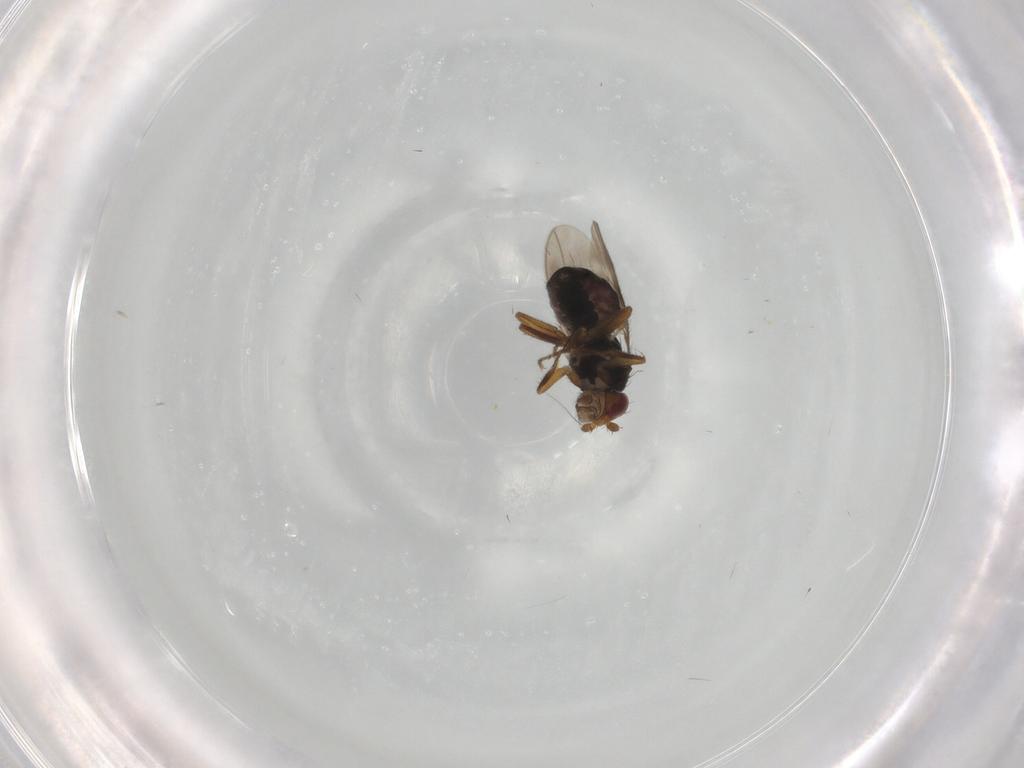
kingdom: Animalia
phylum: Arthropoda
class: Insecta
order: Diptera
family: Sphaeroceridae
